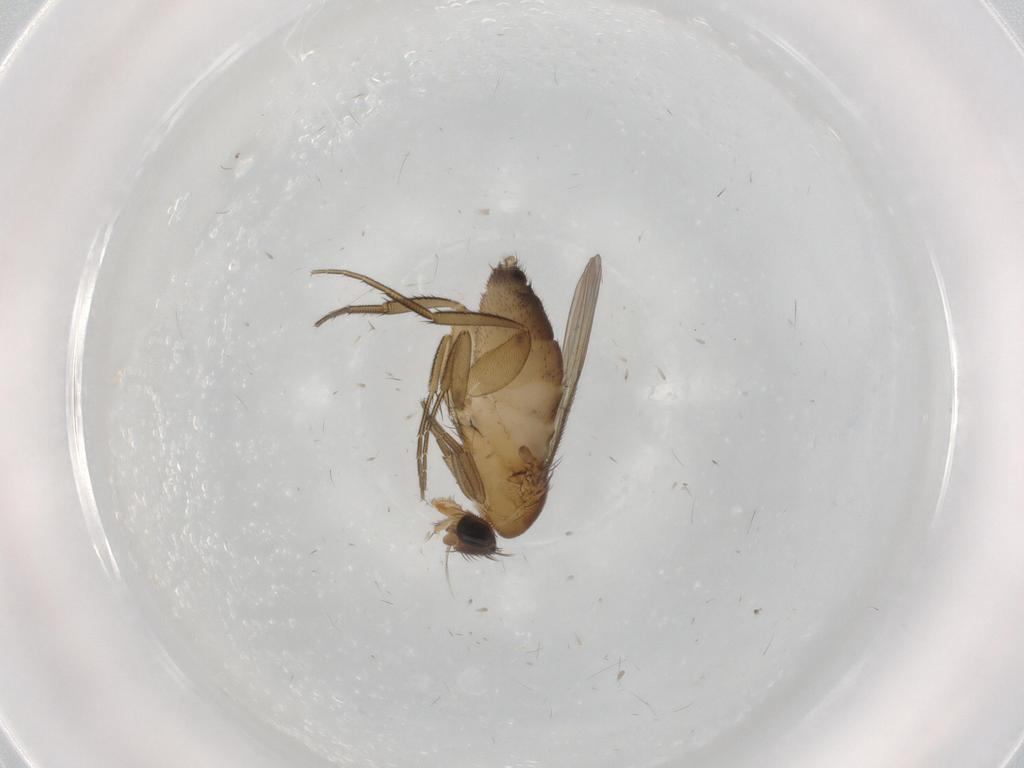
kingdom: Animalia
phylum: Arthropoda
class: Insecta
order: Diptera
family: Phoridae
